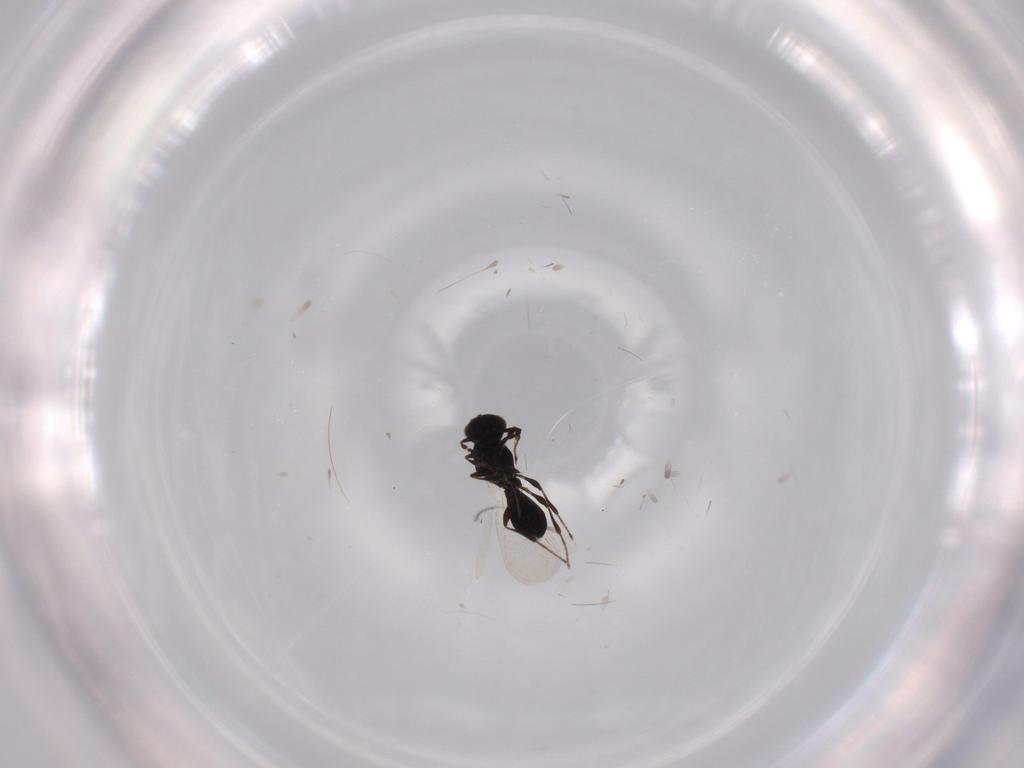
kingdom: Animalia
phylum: Arthropoda
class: Insecta
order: Hymenoptera
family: Platygastridae
